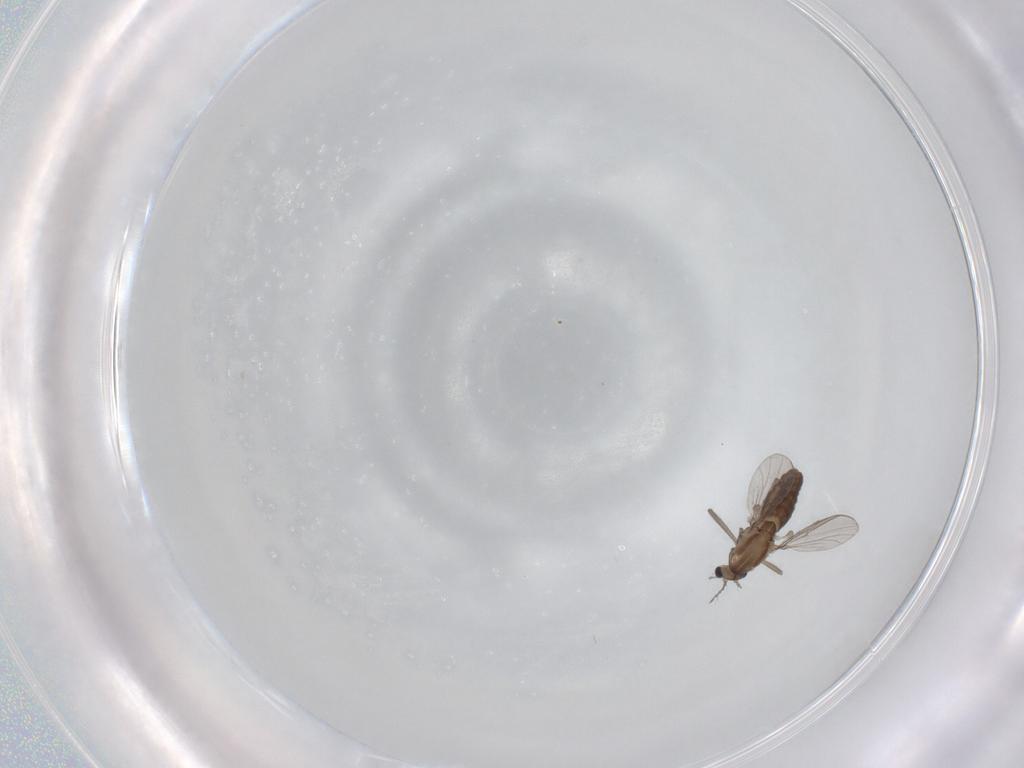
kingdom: Animalia
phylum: Arthropoda
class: Insecta
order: Diptera
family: Chironomidae
